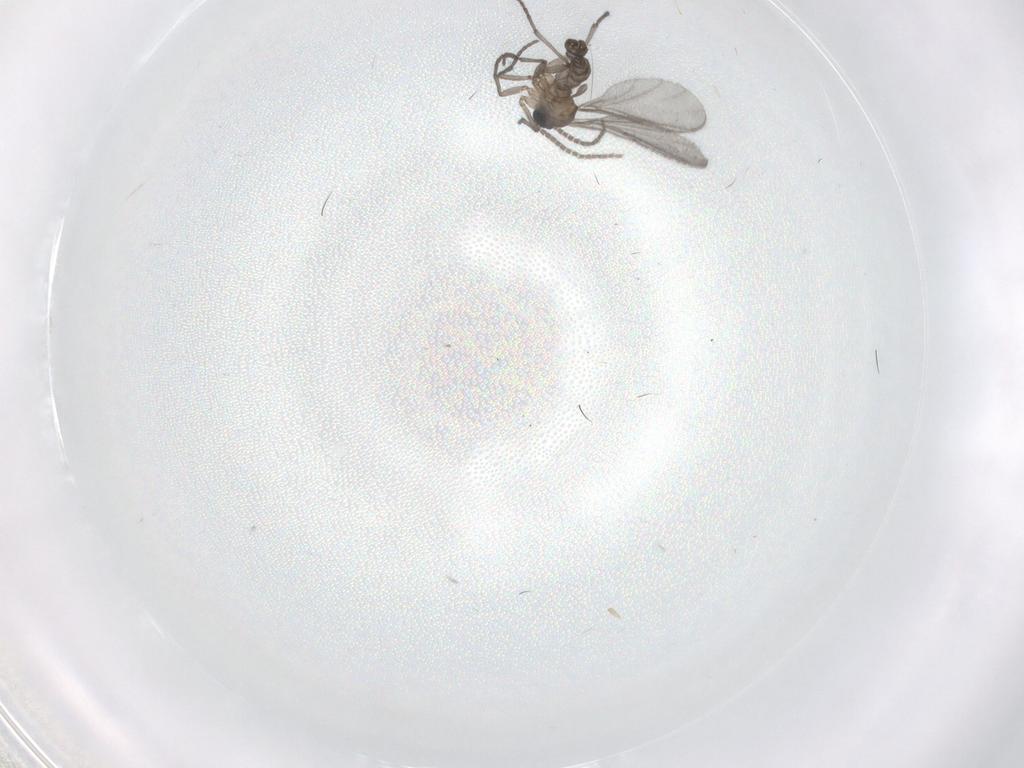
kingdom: Animalia
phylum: Arthropoda
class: Insecta
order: Diptera
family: Sciaridae
